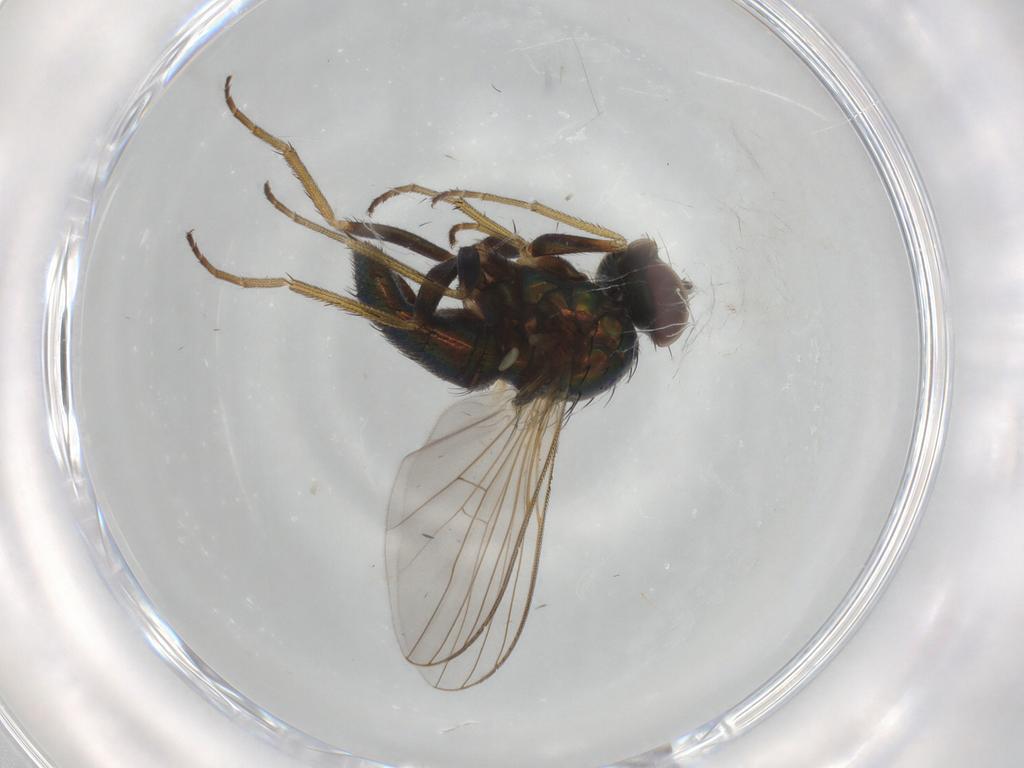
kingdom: Animalia
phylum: Arthropoda
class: Insecta
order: Diptera
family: Dolichopodidae
